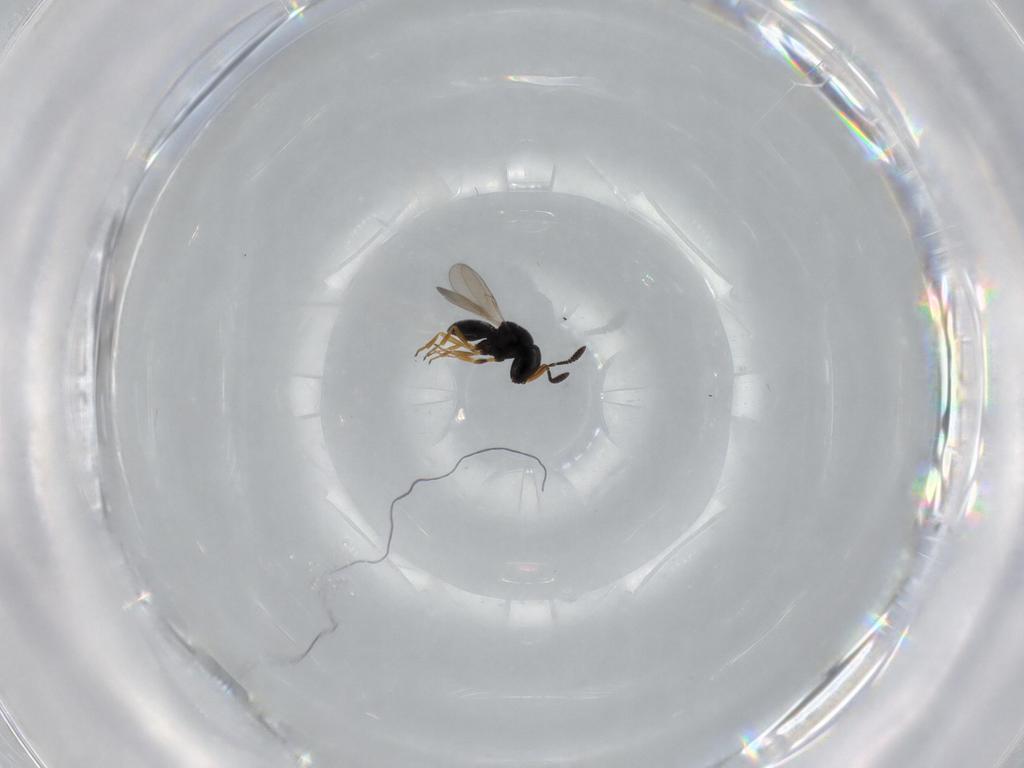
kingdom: Animalia
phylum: Arthropoda
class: Insecta
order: Hymenoptera
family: Scelionidae
